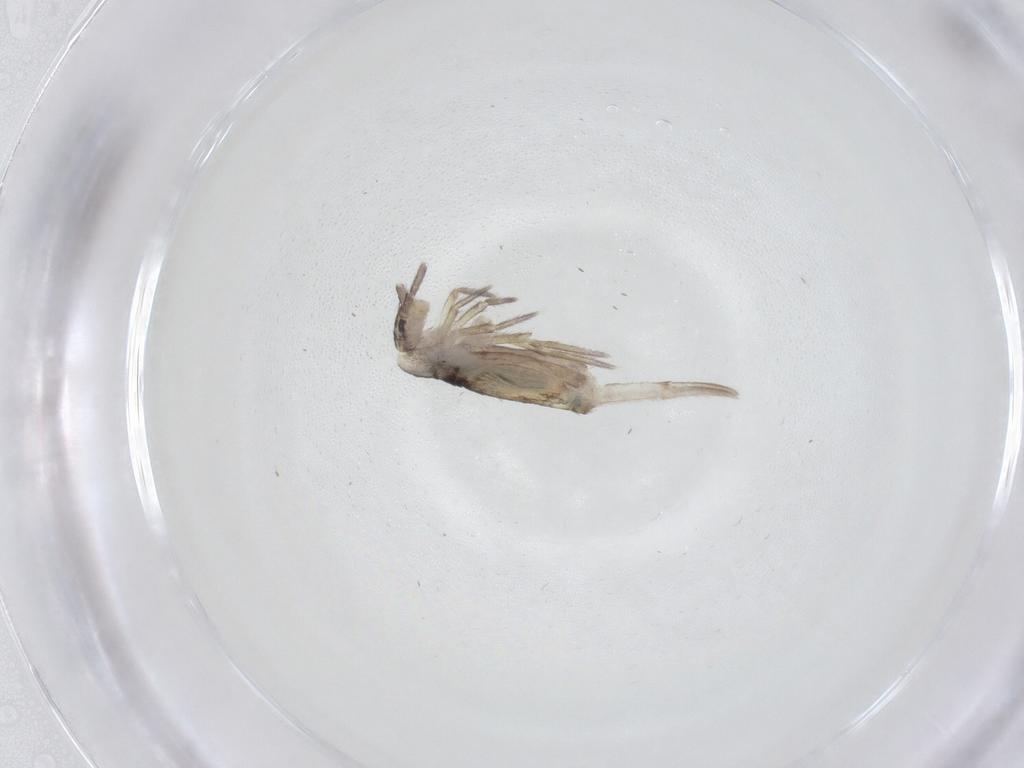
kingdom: Animalia
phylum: Arthropoda
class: Collembola
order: Entomobryomorpha
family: Entomobryidae
